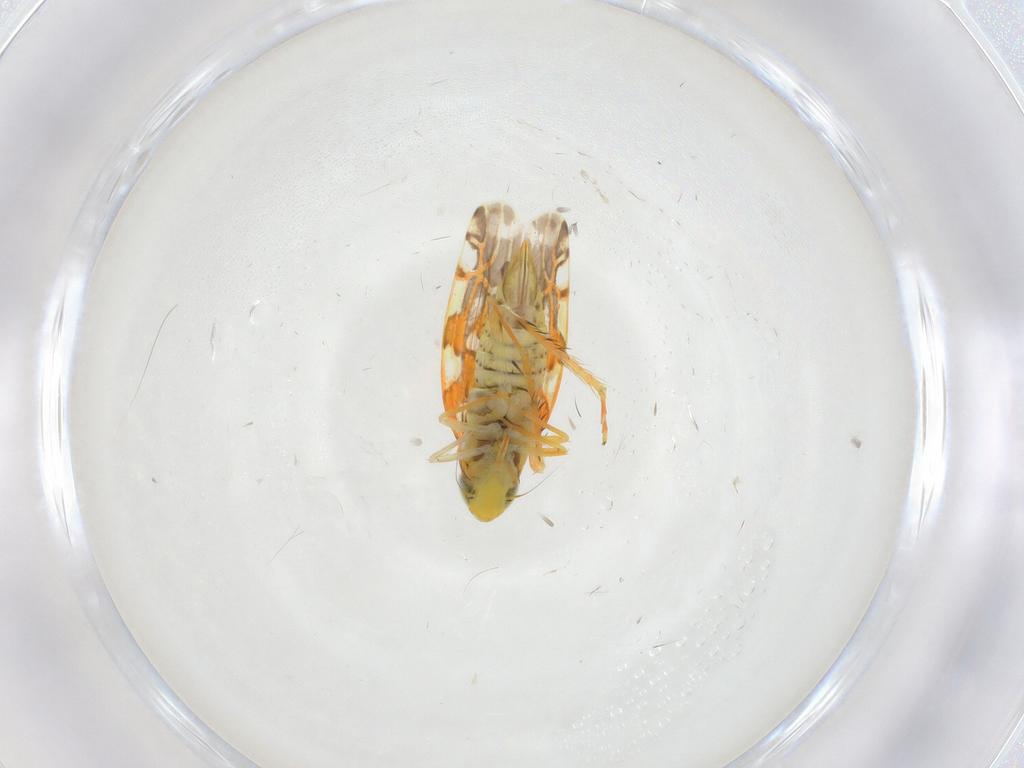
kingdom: Animalia
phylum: Arthropoda
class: Insecta
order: Hemiptera
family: Cicadellidae
